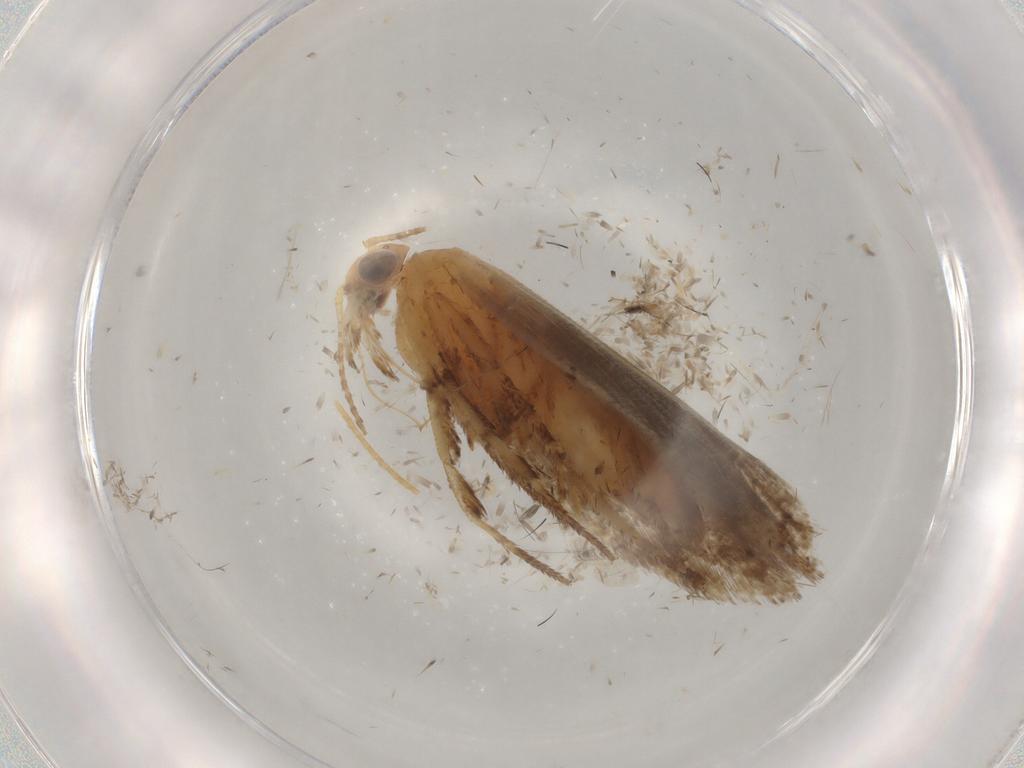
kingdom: Animalia
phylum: Arthropoda
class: Insecta
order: Lepidoptera
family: Ypsolophidae
